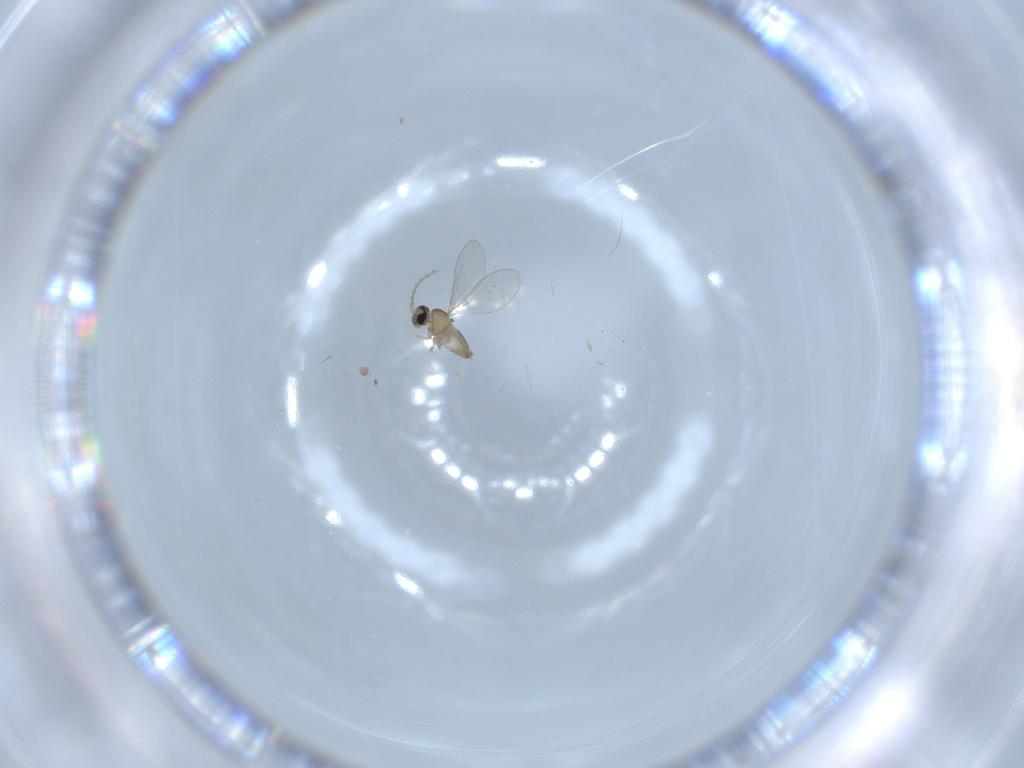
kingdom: Animalia
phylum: Arthropoda
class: Insecta
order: Diptera
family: Cecidomyiidae
